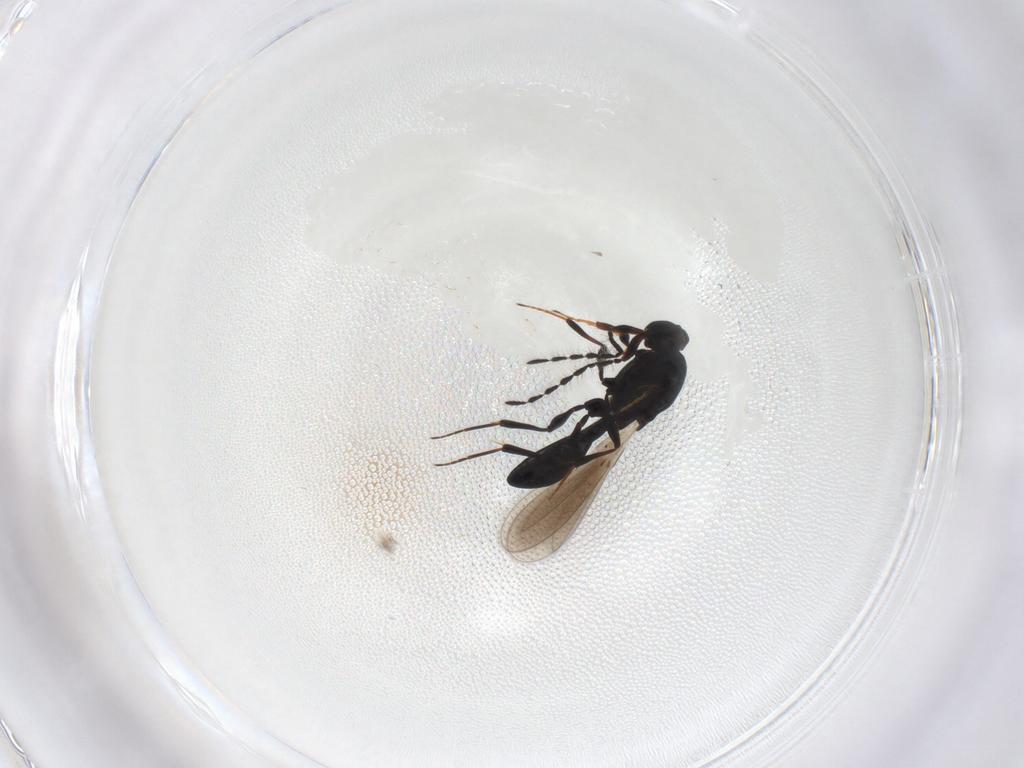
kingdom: Animalia
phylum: Arthropoda
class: Insecta
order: Hymenoptera
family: Platygastridae
